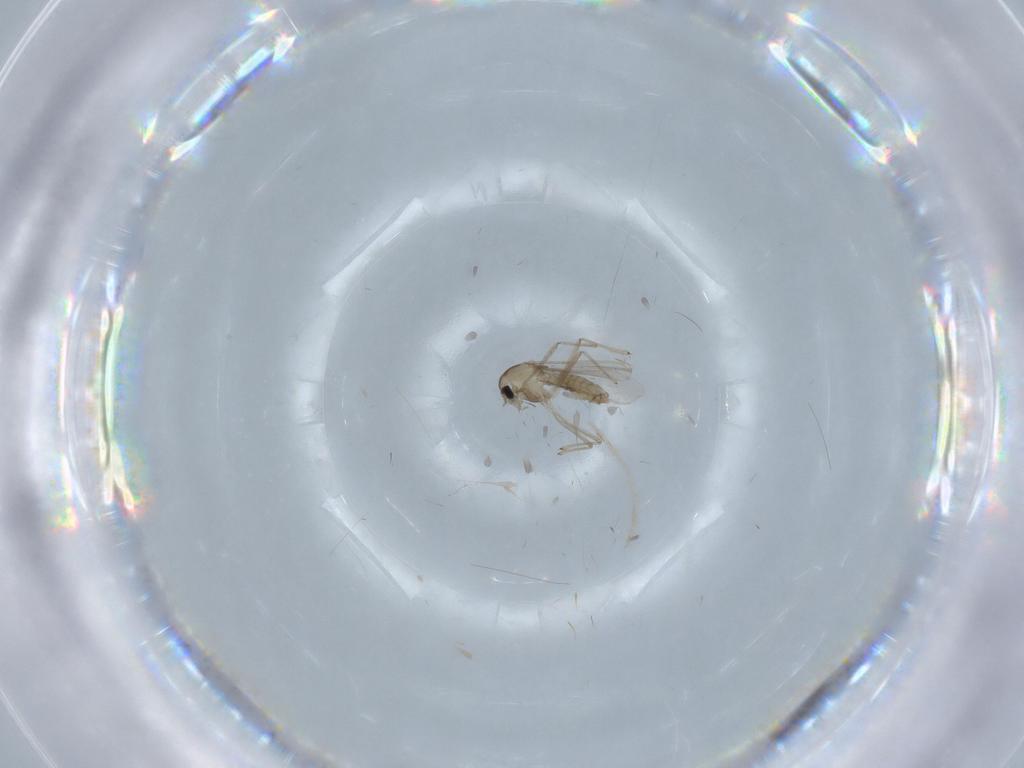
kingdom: Animalia
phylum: Arthropoda
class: Insecta
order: Diptera
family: Chironomidae
